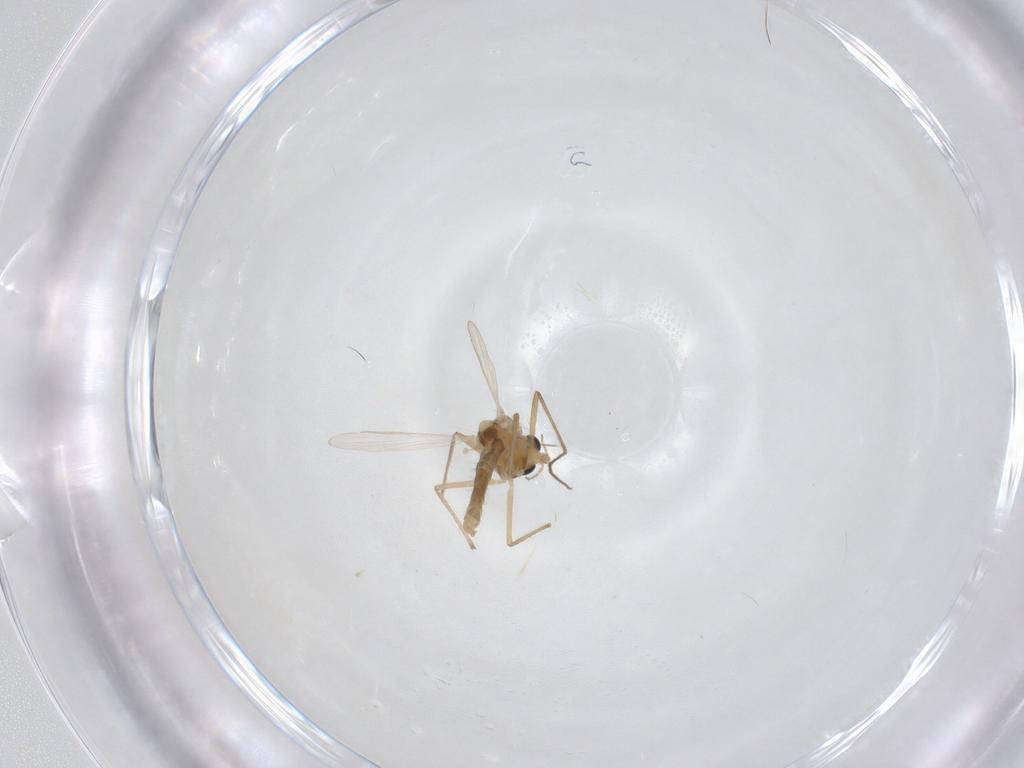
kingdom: Animalia
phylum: Arthropoda
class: Insecta
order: Diptera
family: Chironomidae
